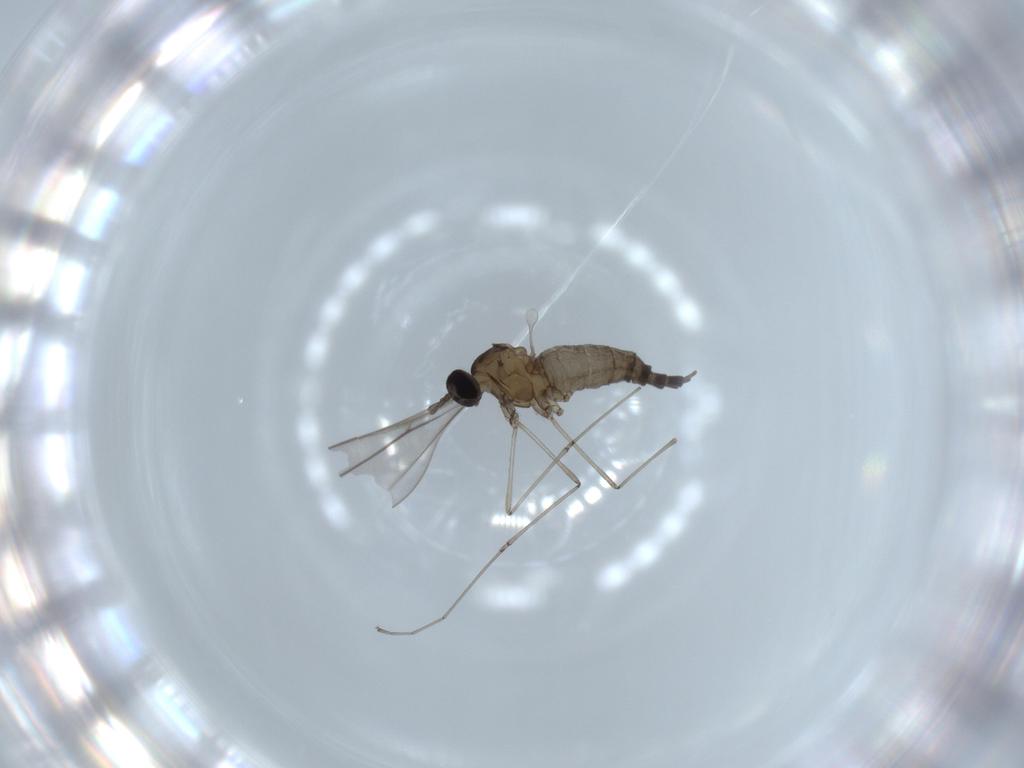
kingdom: Animalia
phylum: Arthropoda
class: Insecta
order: Diptera
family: Cecidomyiidae
